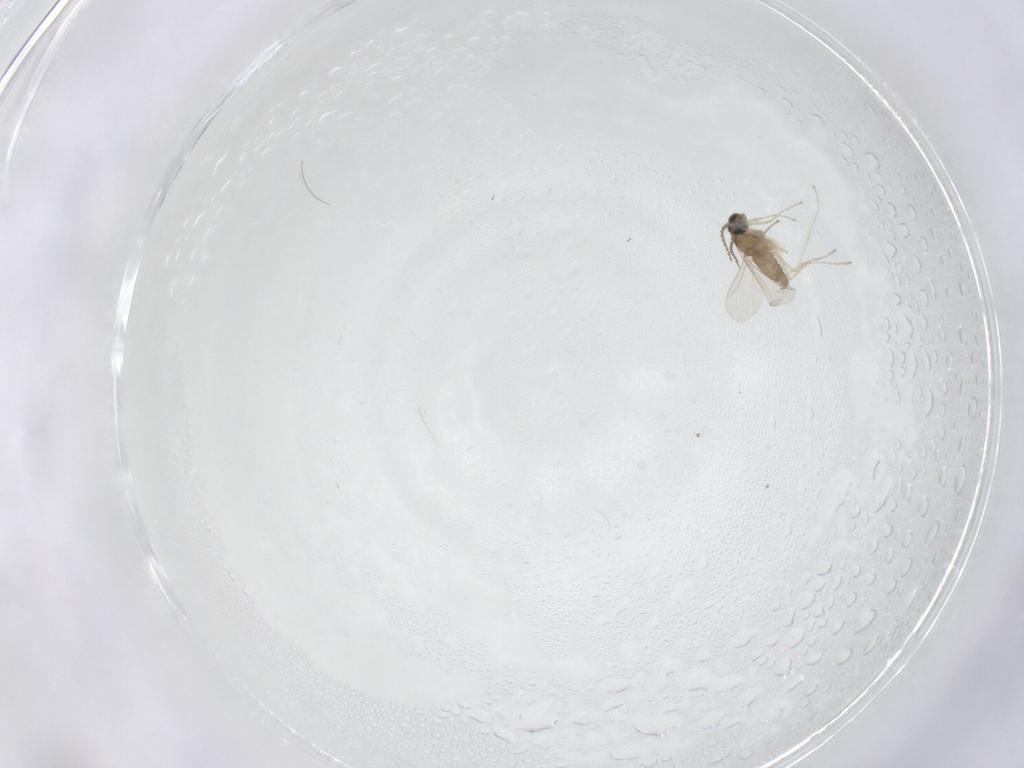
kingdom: Animalia
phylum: Arthropoda
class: Insecta
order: Diptera
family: Cecidomyiidae
